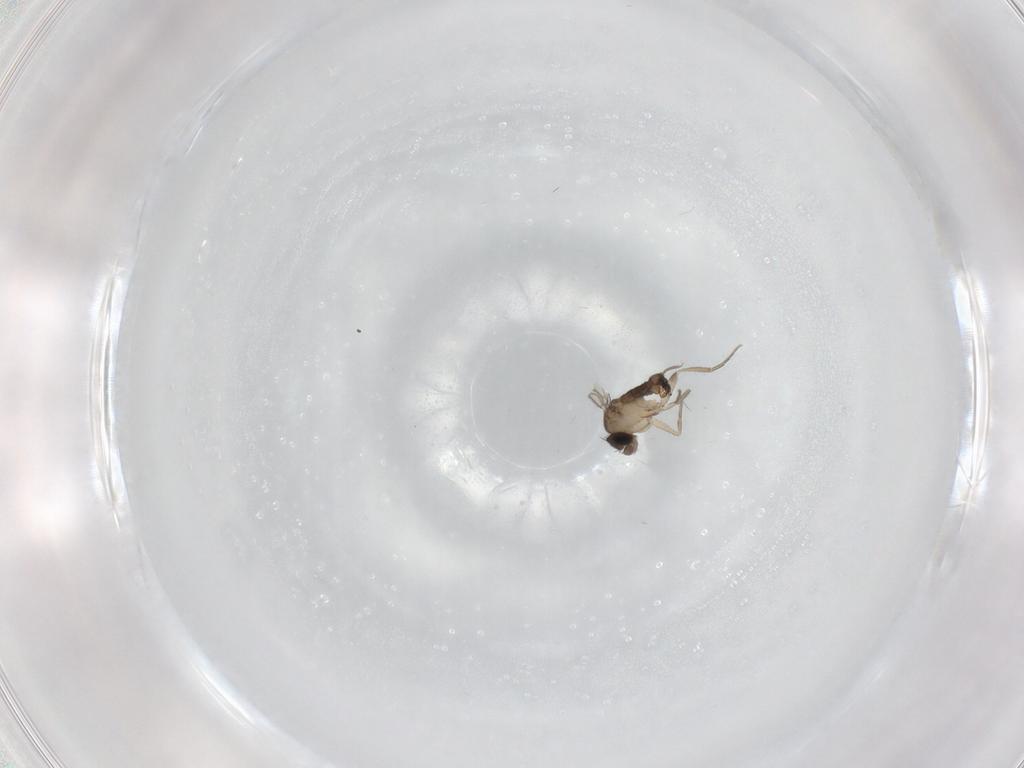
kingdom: Animalia
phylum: Arthropoda
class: Insecta
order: Diptera
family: Phoridae
